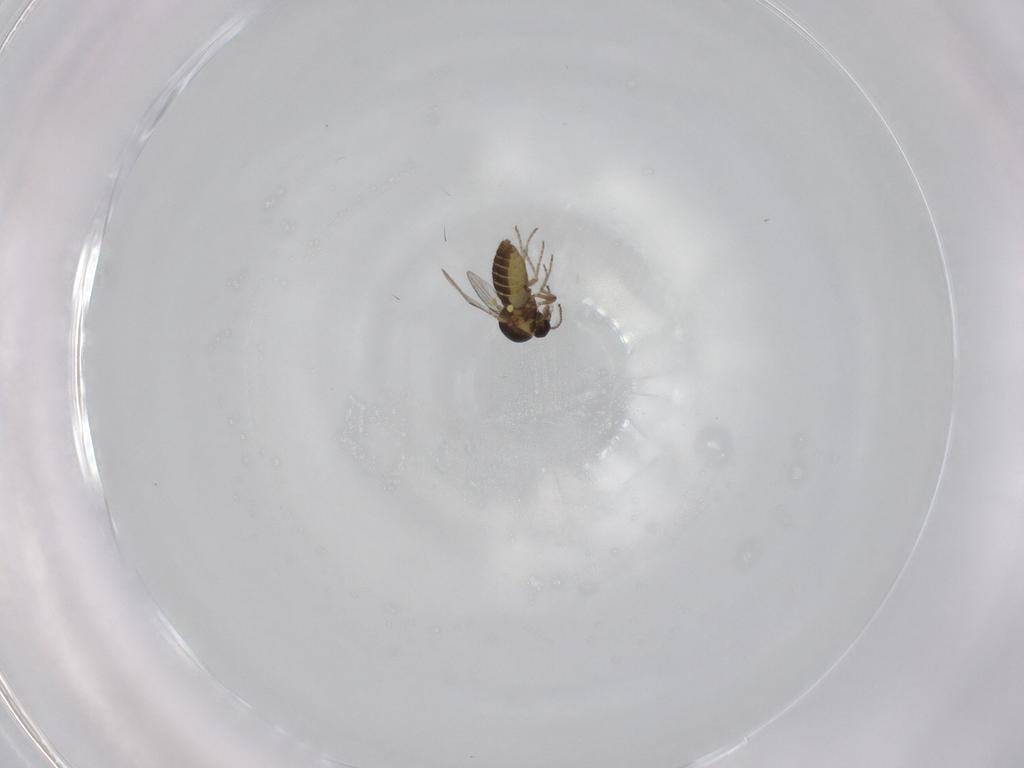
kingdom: Animalia
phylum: Arthropoda
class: Insecta
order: Diptera
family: Ceratopogonidae
